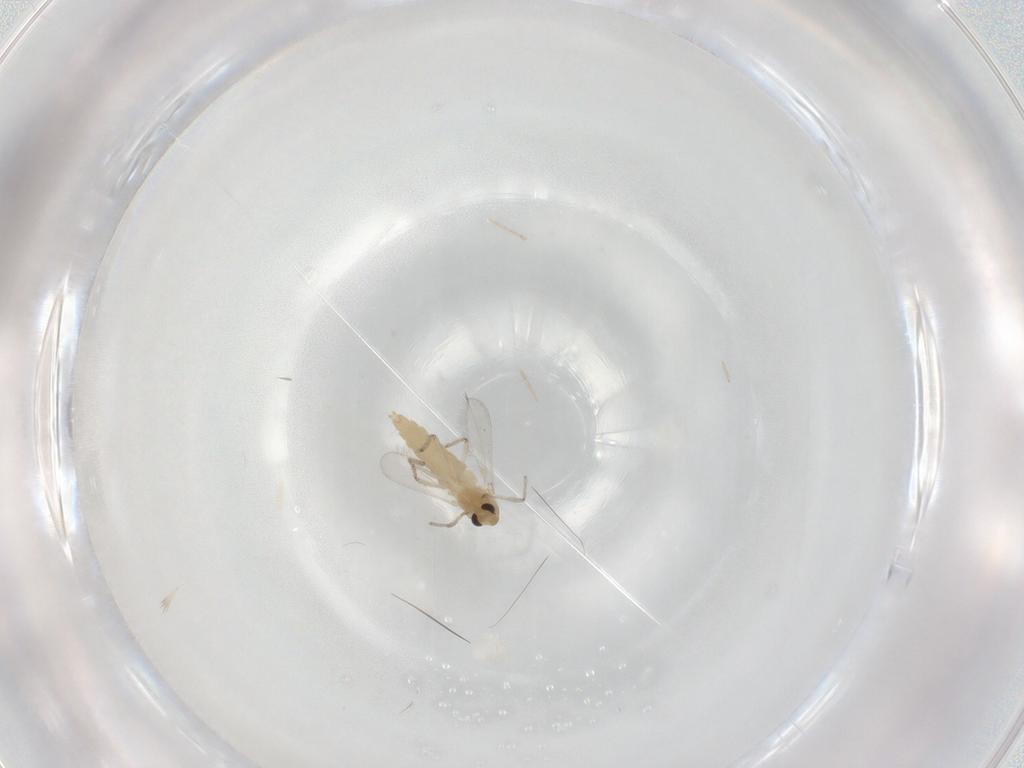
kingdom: Animalia
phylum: Arthropoda
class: Insecta
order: Diptera
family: Chironomidae
